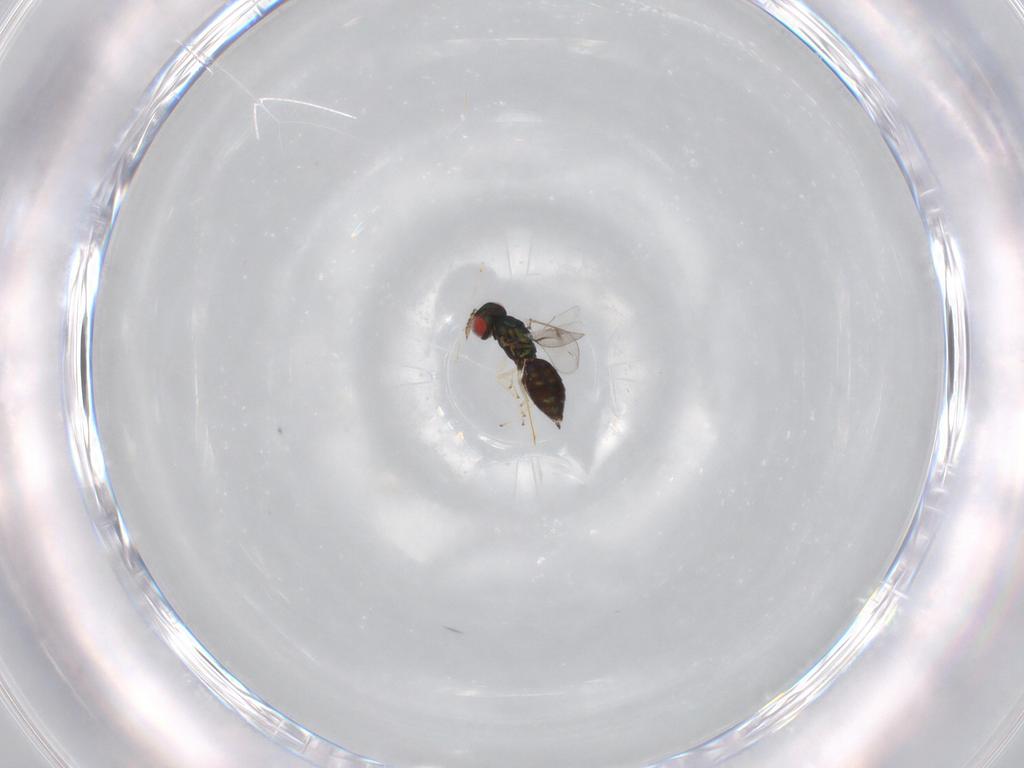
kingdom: Animalia
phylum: Arthropoda
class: Insecta
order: Hymenoptera
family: Eulophidae
